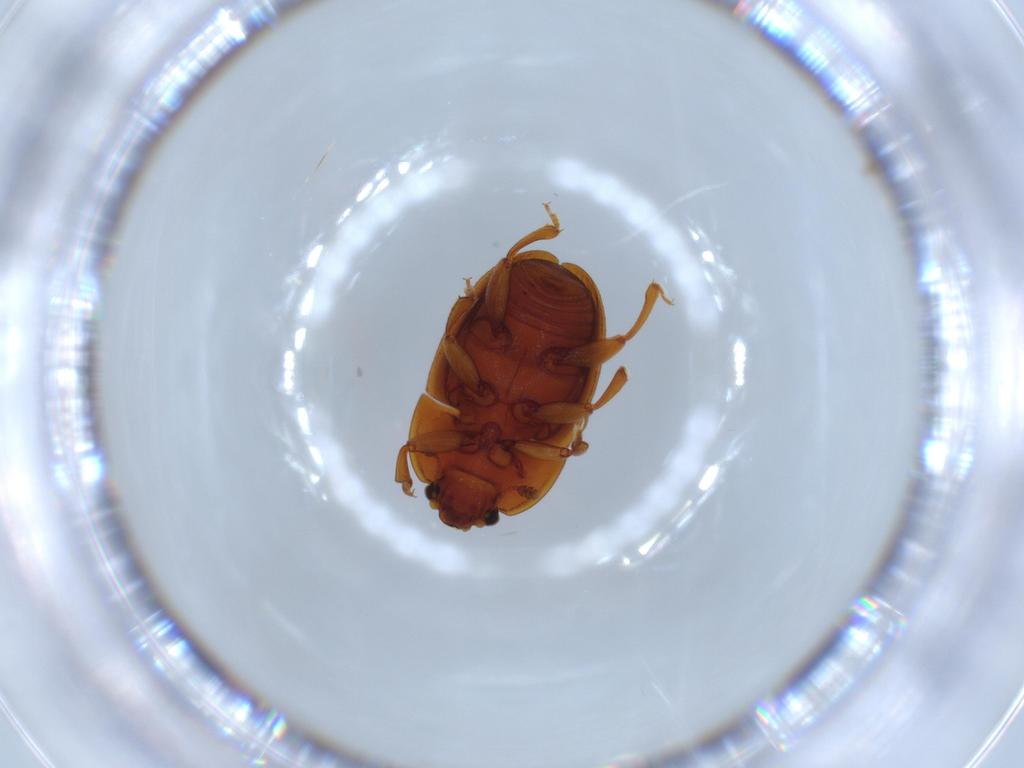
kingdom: Animalia
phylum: Arthropoda
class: Insecta
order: Coleoptera
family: Nitidulidae
